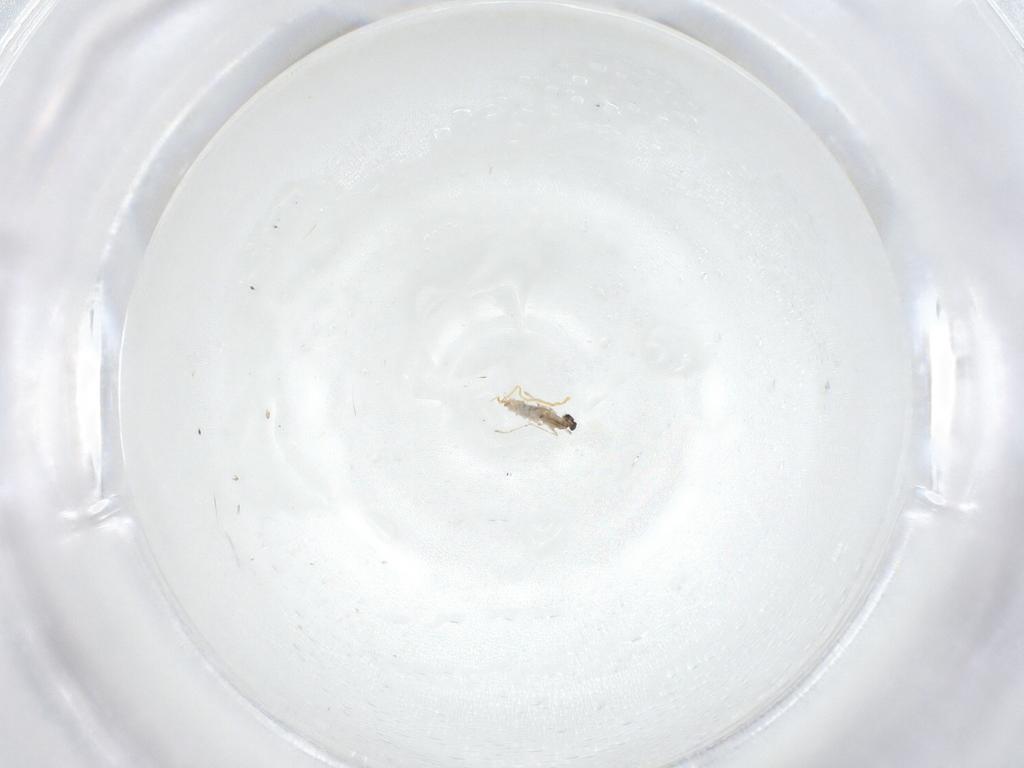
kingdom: Animalia
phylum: Arthropoda
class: Insecta
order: Diptera
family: Cecidomyiidae
